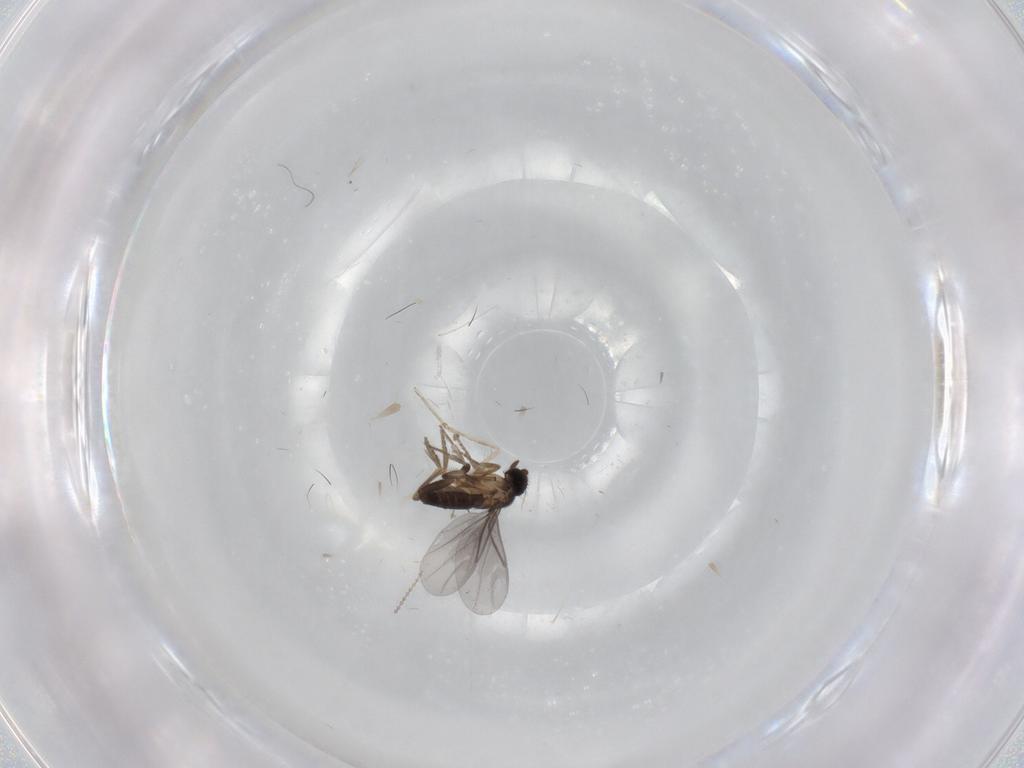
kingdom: Animalia
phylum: Arthropoda
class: Insecta
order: Diptera
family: Cecidomyiidae
